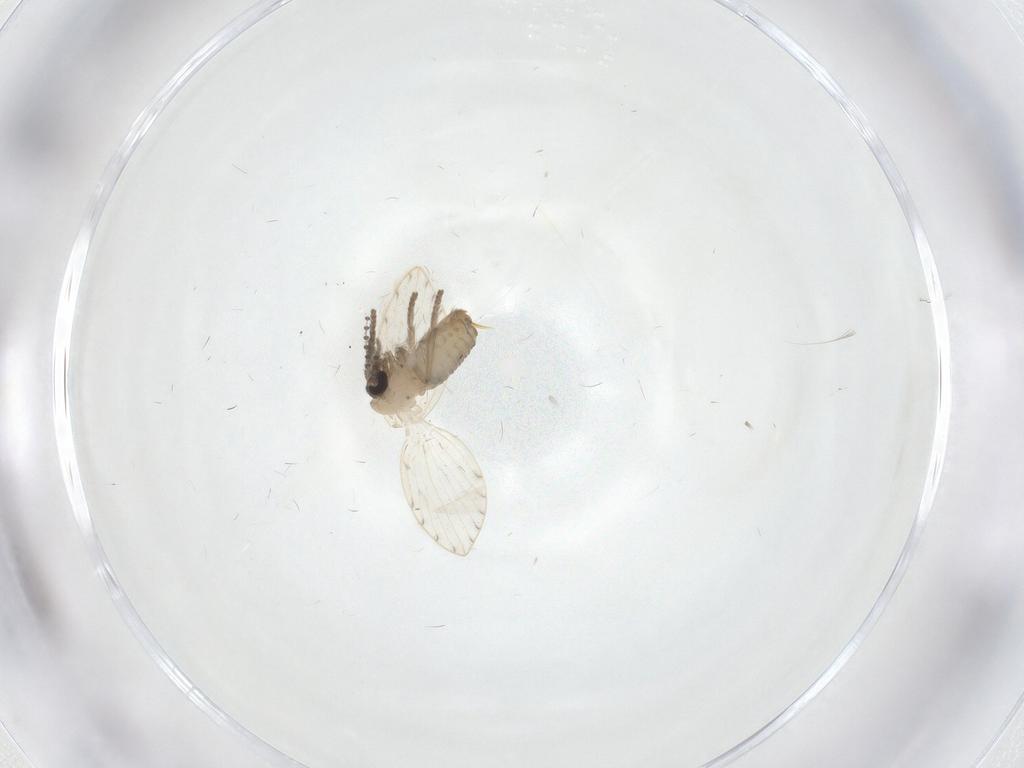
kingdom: Animalia
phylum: Arthropoda
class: Insecta
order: Diptera
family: Psychodidae
